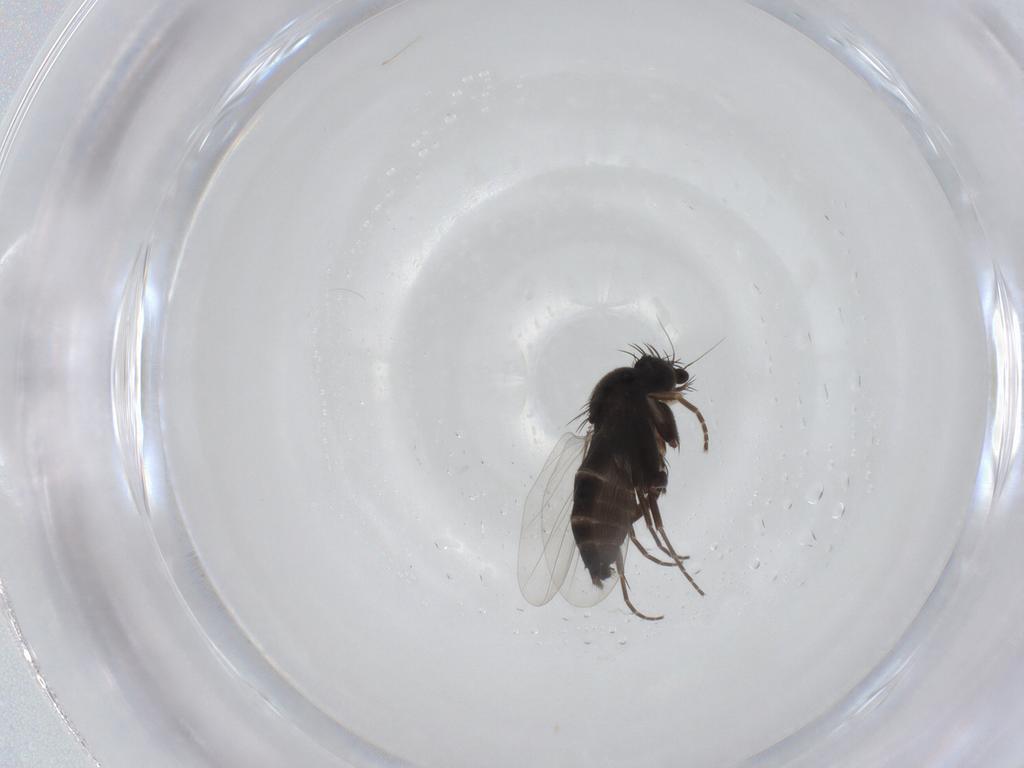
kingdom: Animalia
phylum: Arthropoda
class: Insecta
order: Diptera
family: Phoridae
